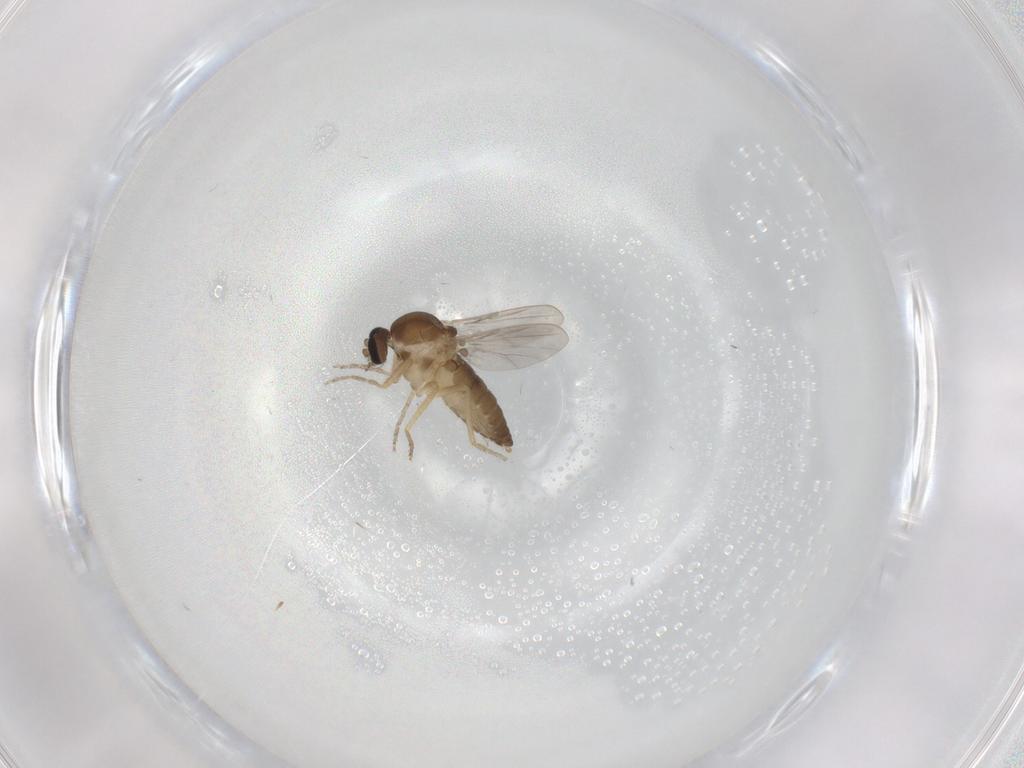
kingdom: Animalia
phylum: Arthropoda
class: Insecta
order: Diptera
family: Ceratopogonidae
